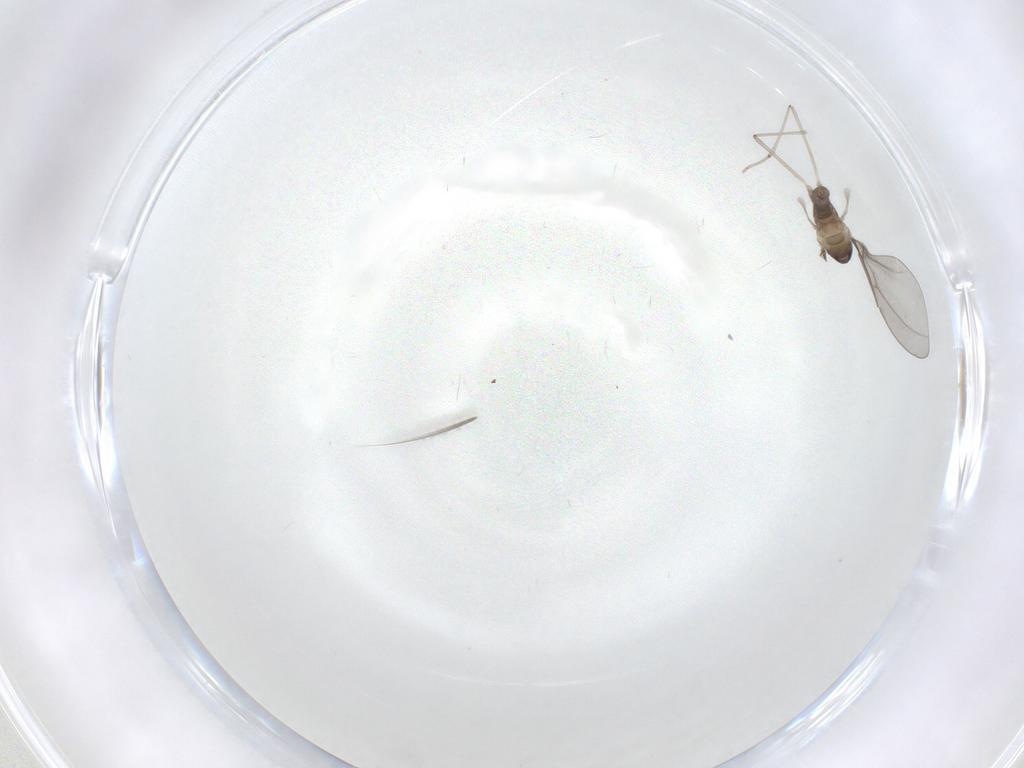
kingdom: Animalia
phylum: Arthropoda
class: Insecta
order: Diptera
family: Cecidomyiidae
